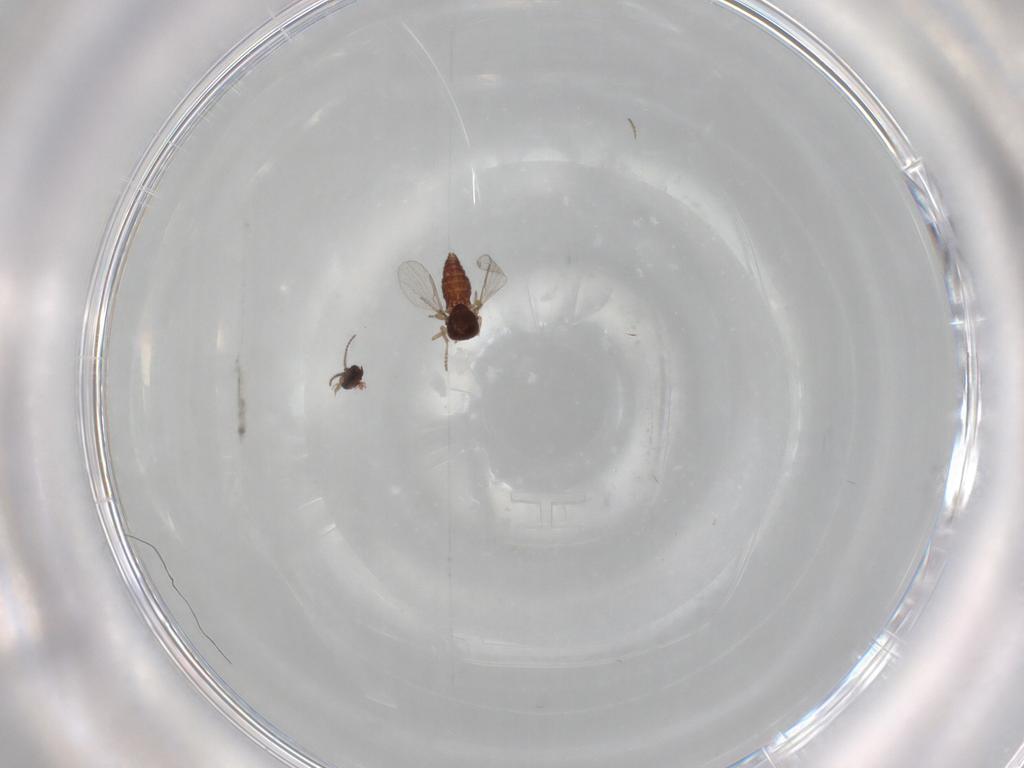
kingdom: Animalia
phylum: Arthropoda
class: Insecta
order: Diptera
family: Ceratopogonidae
